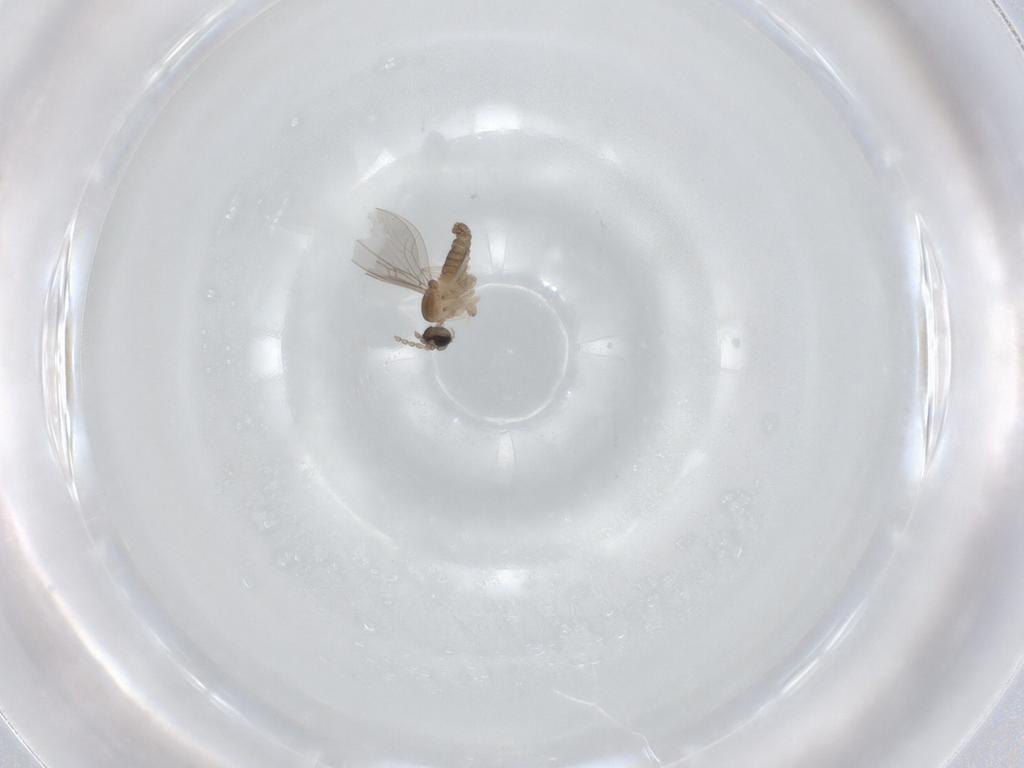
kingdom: Animalia
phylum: Arthropoda
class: Insecta
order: Diptera
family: Cecidomyiidae
